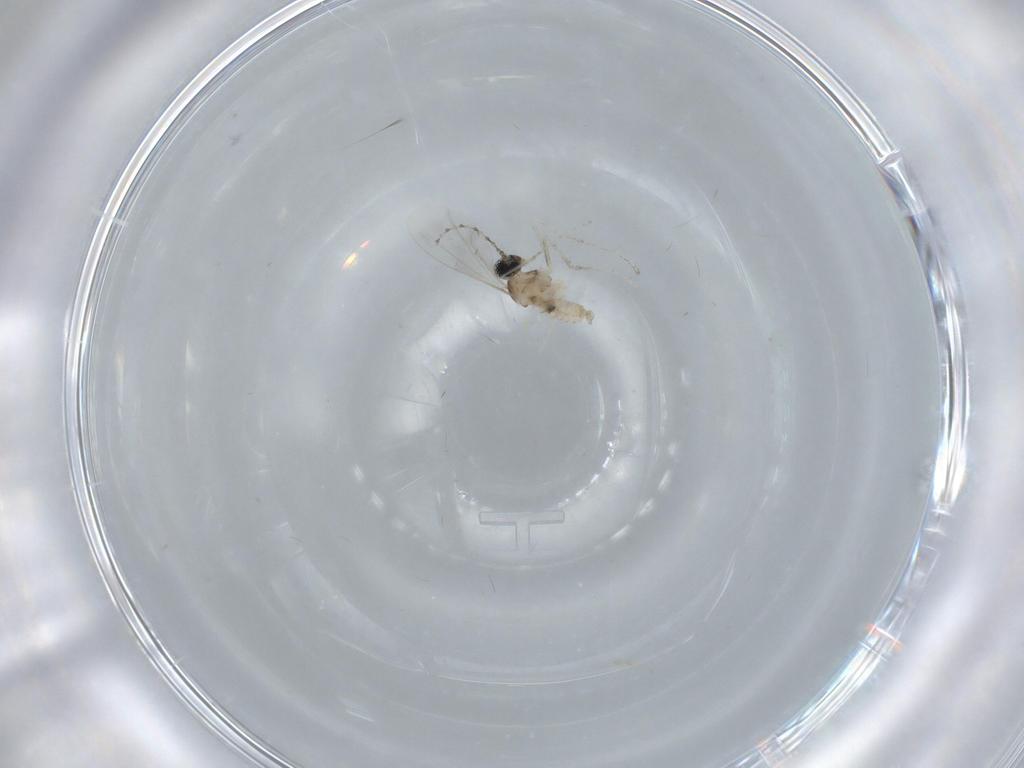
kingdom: Animalia
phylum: Arthropoda
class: Insecta
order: Diptera
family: Cecidomyiidae
